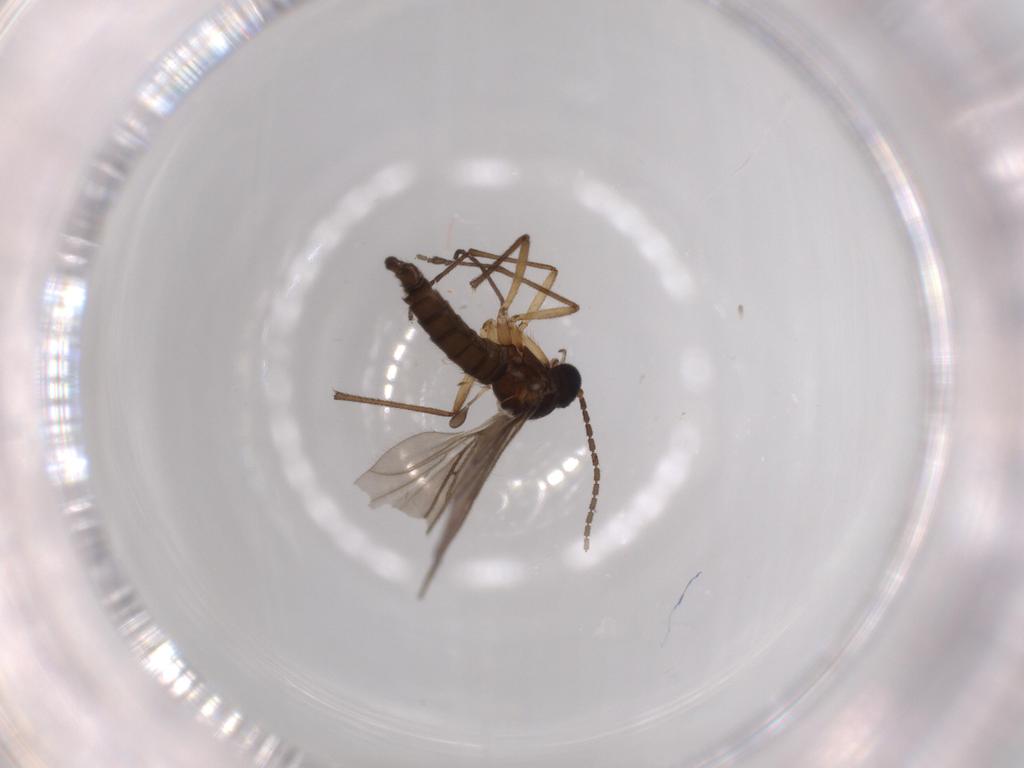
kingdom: Animalia
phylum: Arthropoda
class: Insecta
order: Diptera
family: Sciaridae
